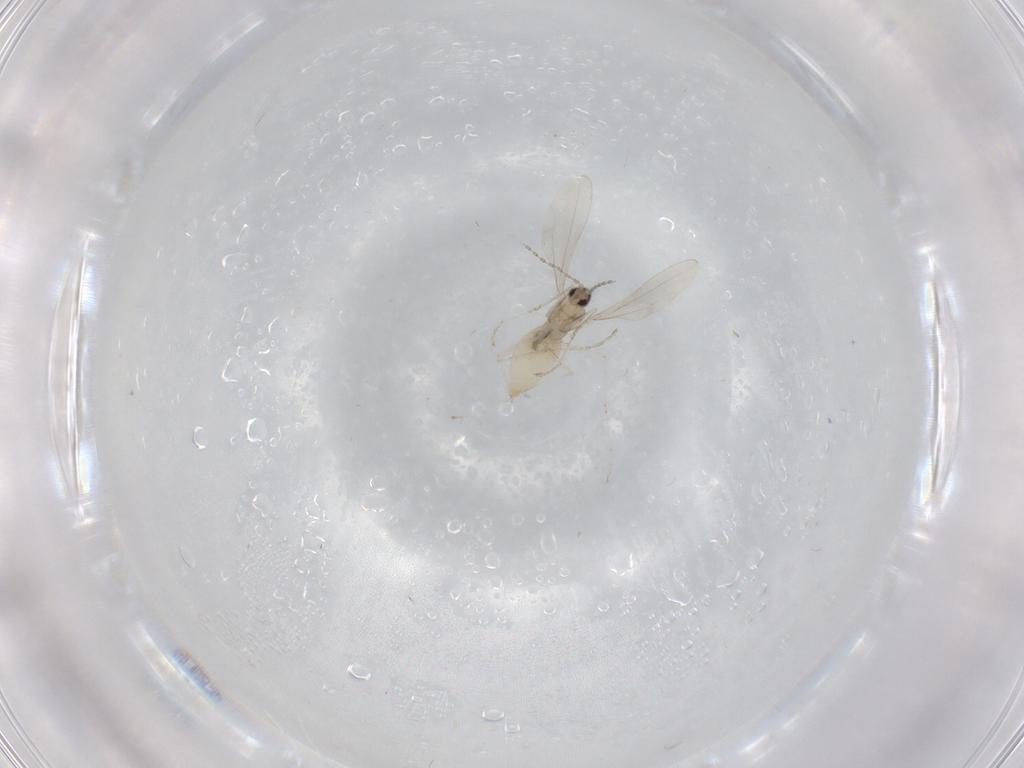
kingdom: Animalia
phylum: Arthropoda
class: Insecta
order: Diptera
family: Cecidomyiidae
